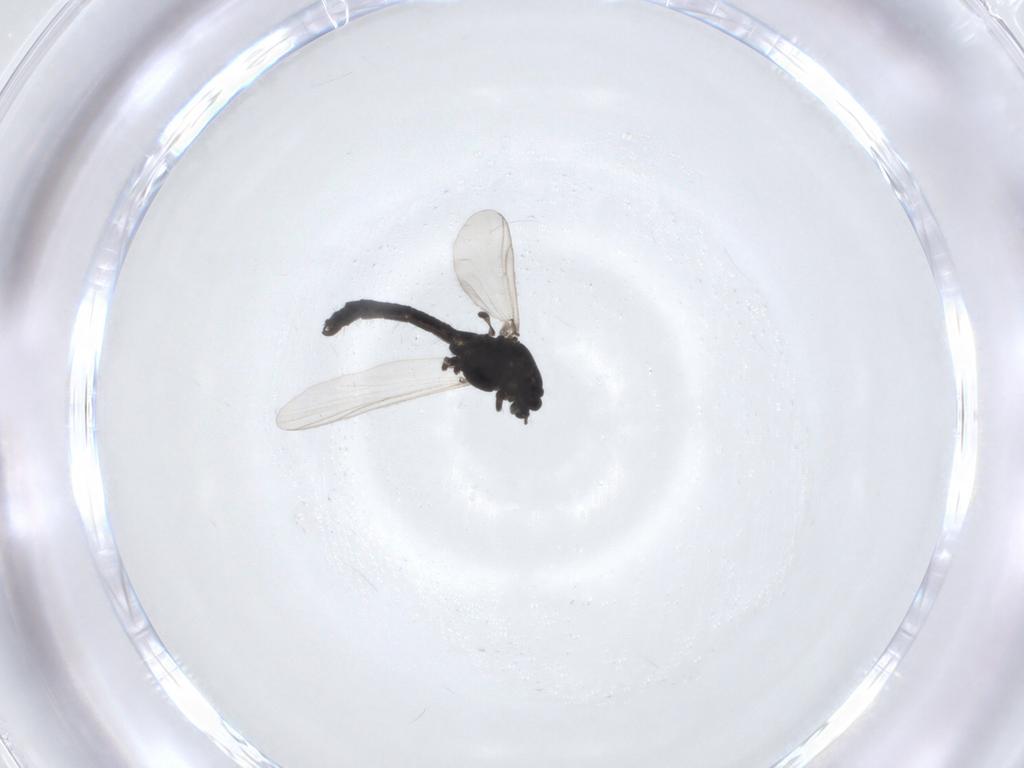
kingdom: Animalia
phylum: Arthropoda
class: Insecta
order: Diptera
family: Chironomidae
